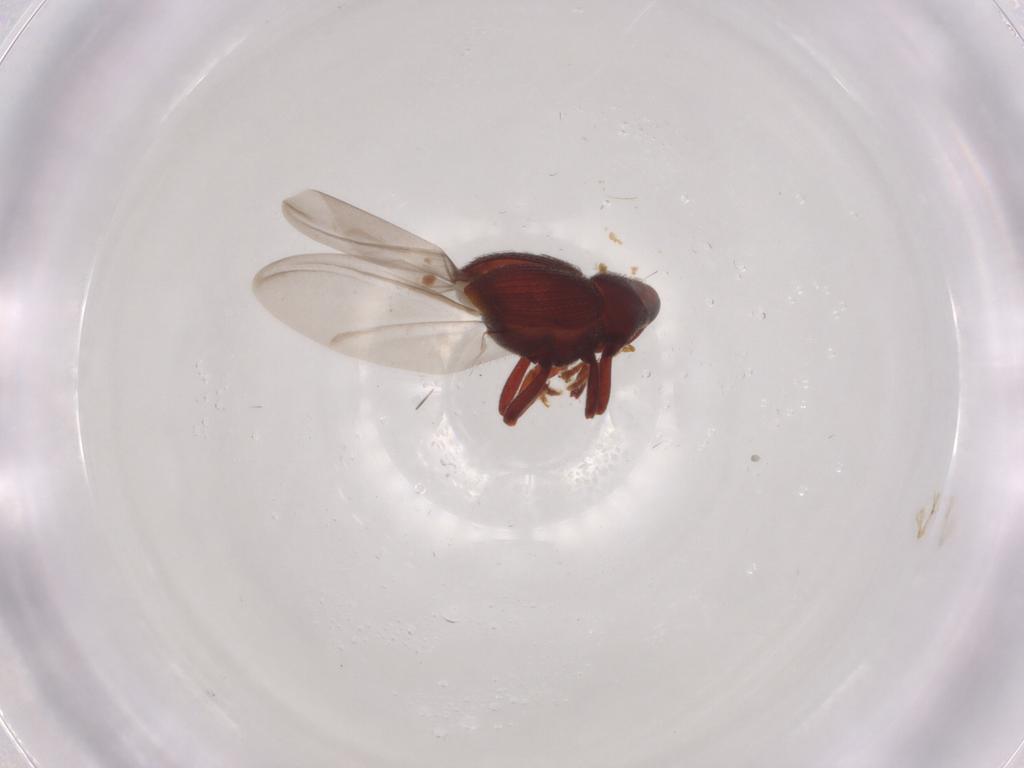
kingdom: Animalia
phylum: Arthropoda
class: Insecta
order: Coleoptera
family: Curculionidae
